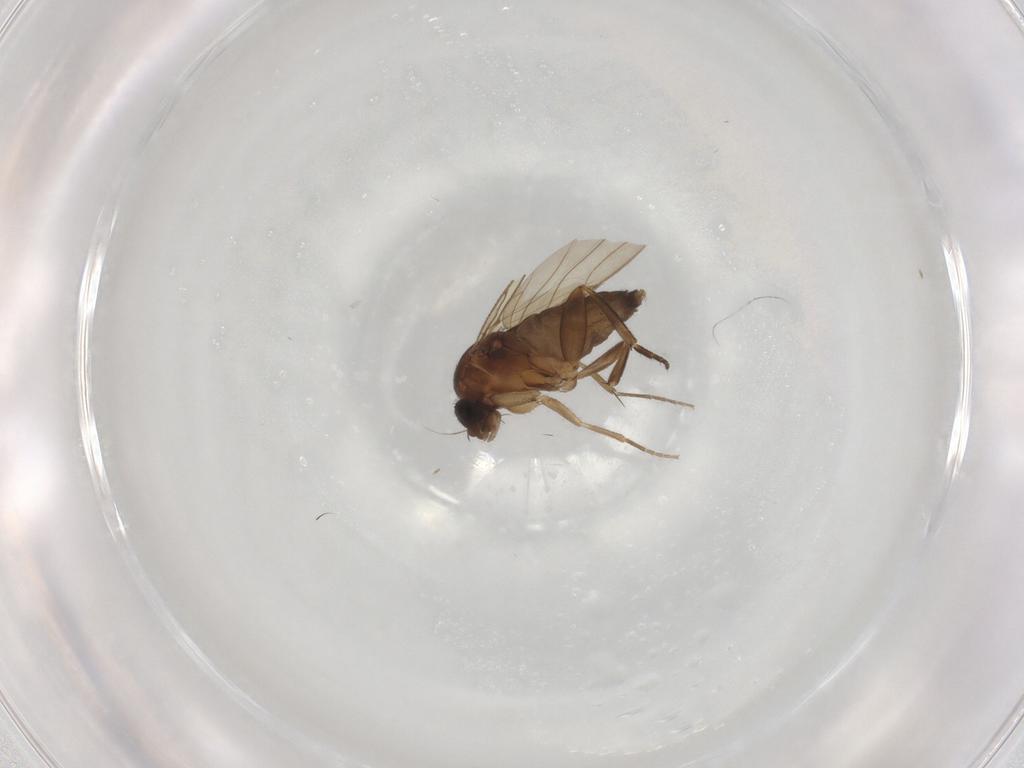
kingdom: Animalia
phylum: Arthropoda
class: Insecta
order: Diptera
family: Phoridae
